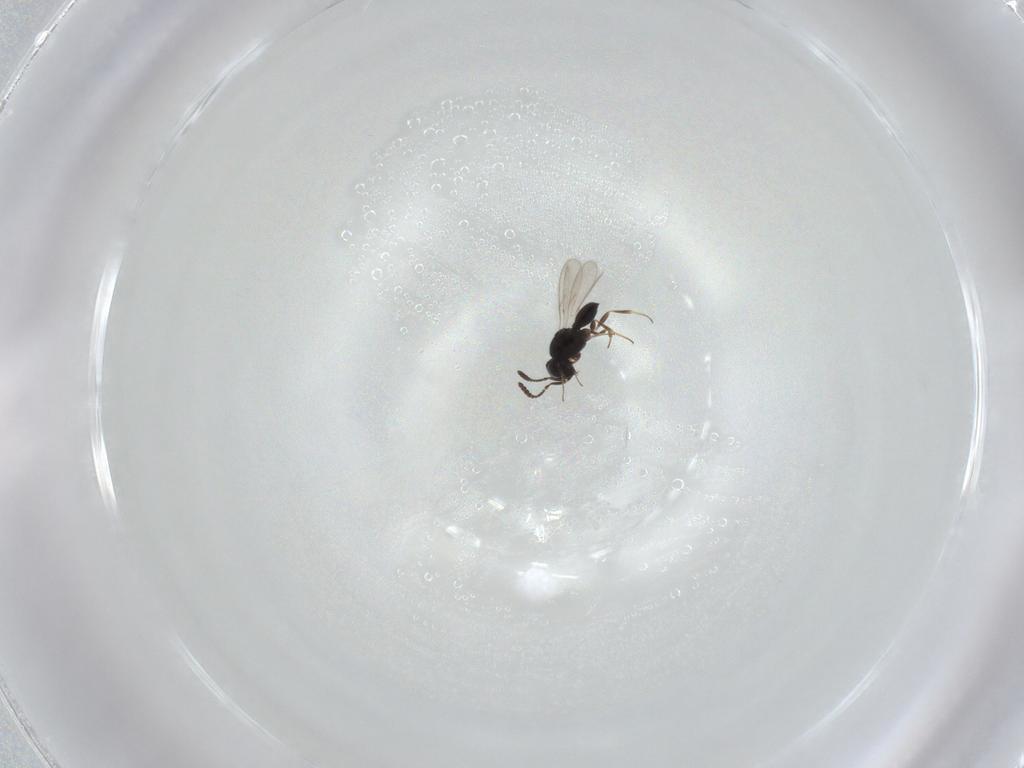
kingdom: Animalia
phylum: Arthropoda
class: Insecta
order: Hymenoptera
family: Scelionidae
